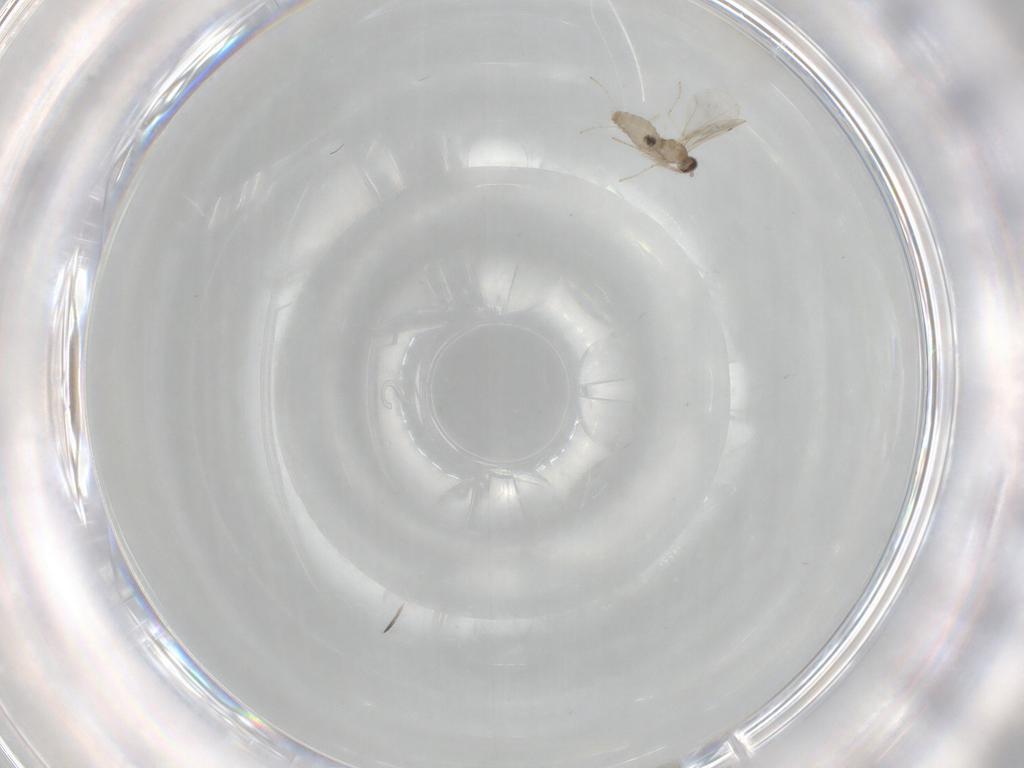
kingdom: Animalia
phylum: Arthropoda
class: Insecta
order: Diptera
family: Cecidomyiidae
